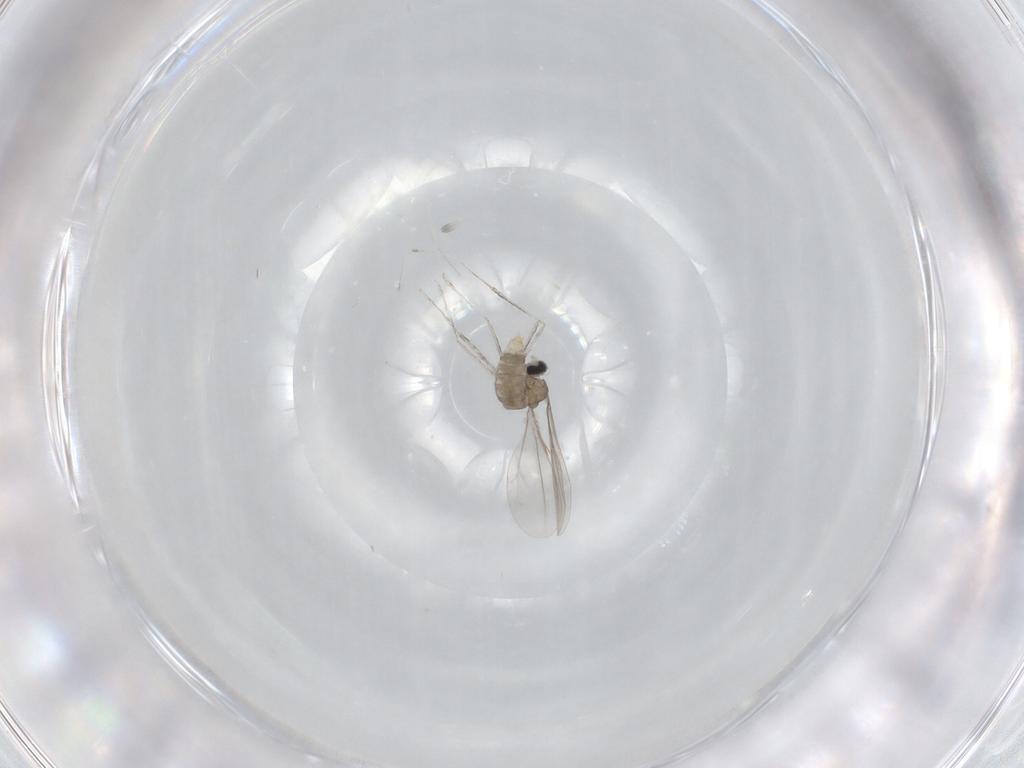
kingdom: Animalia
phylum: Arthropoda
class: Insecta
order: Diptera
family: Cecidomyiidae
